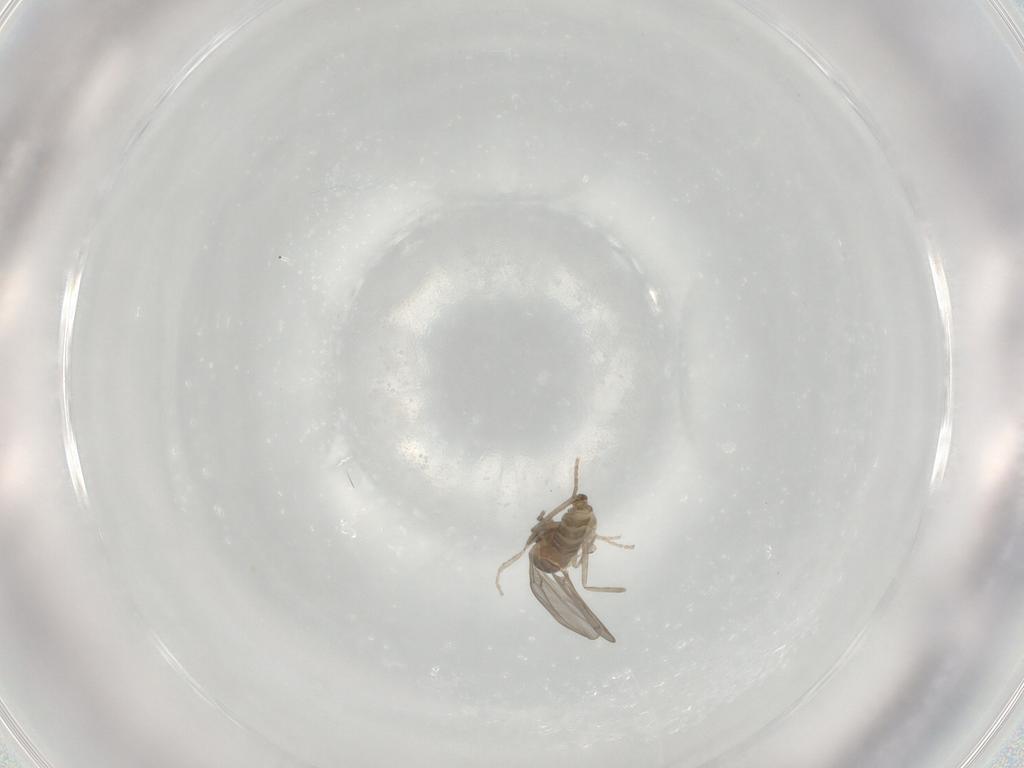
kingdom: Animalia
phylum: Arthropoda
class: Insecta
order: Diptera
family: Cecidomyiidae
